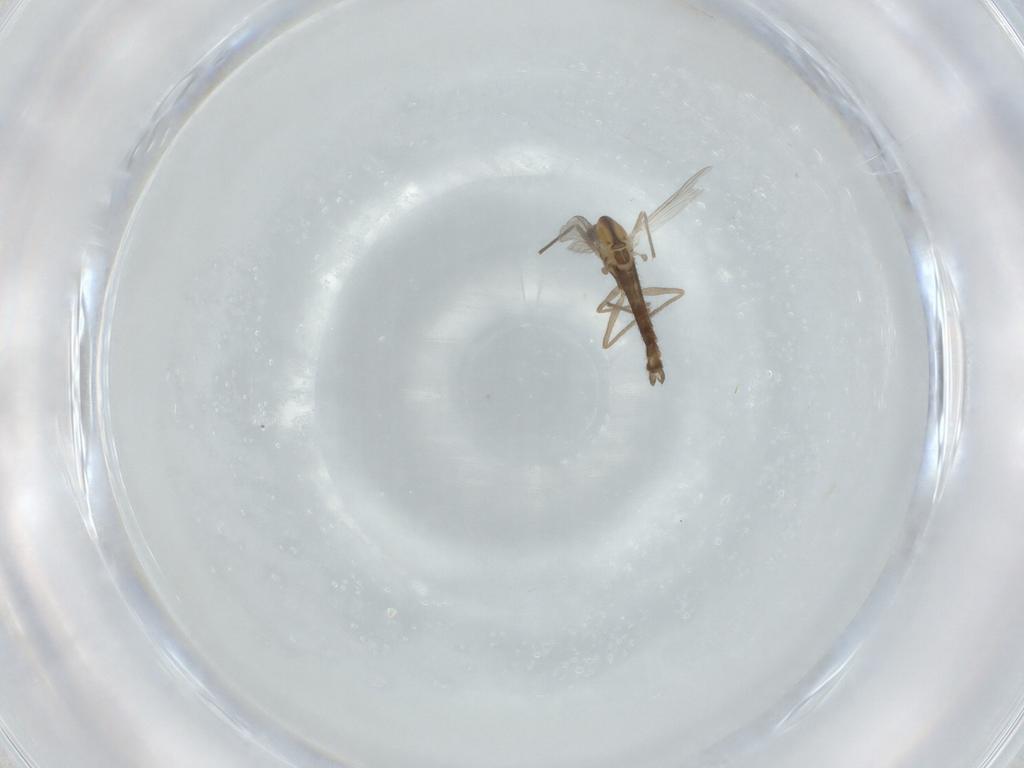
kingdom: Animalia
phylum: Arthropoda
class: Insecta
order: Diptera
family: Chironomidae
